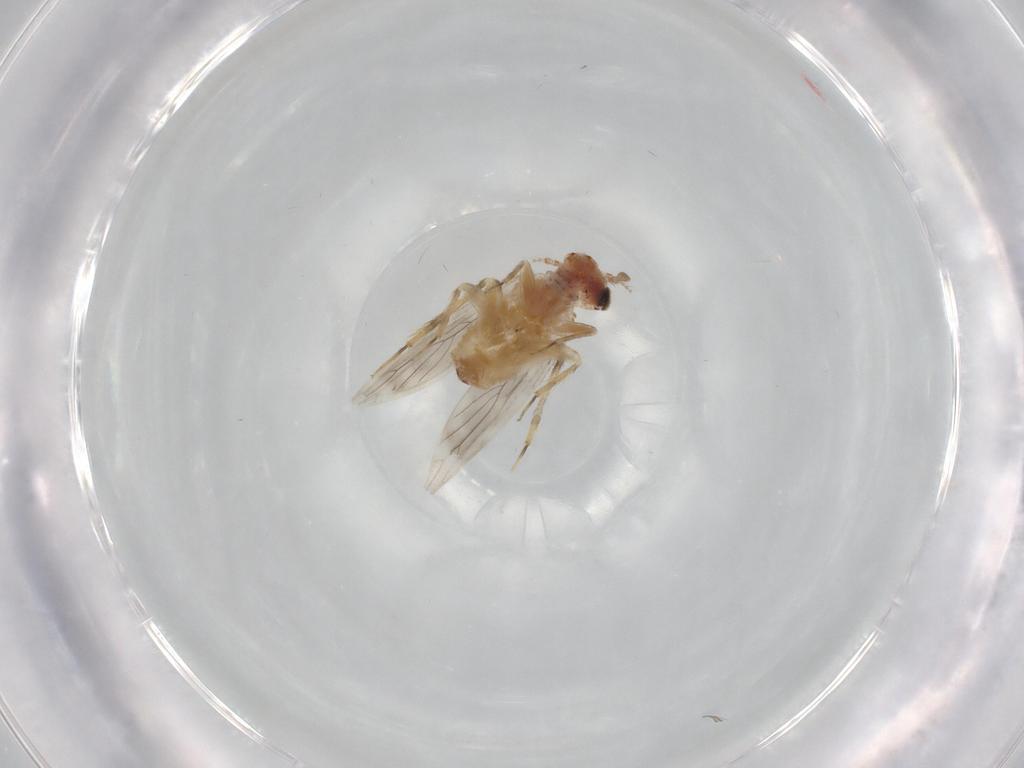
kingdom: Animalia
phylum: Arthropoda
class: Insecta
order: Psocodea
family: Lepidopsocidae
